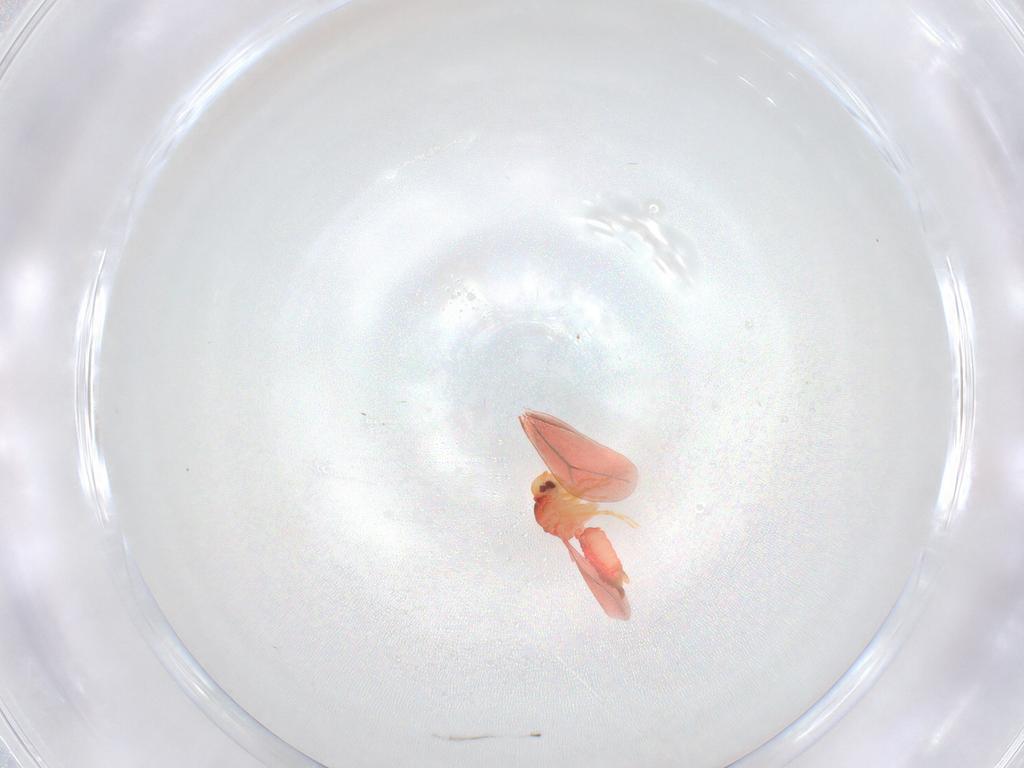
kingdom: Animalia
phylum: Arthropoda
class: Insecta
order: Hemiptera
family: Aleyrodidae
